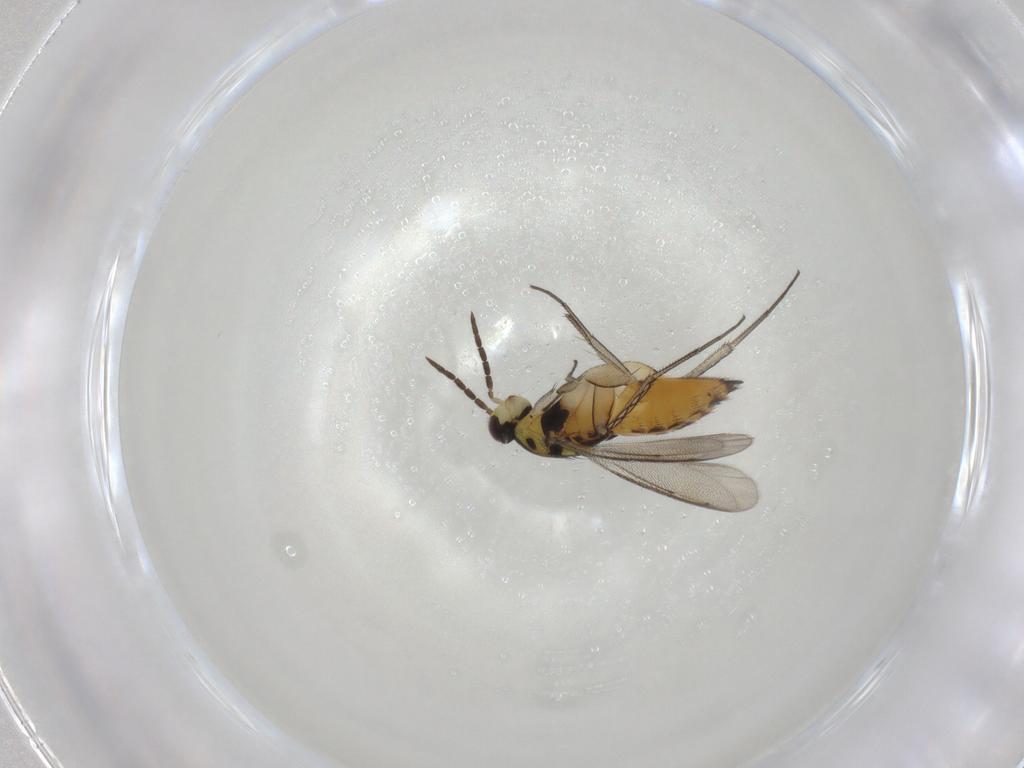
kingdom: Animalia
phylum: Arthropoda
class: Insecta
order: Hymenoptera
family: Scelionidae
